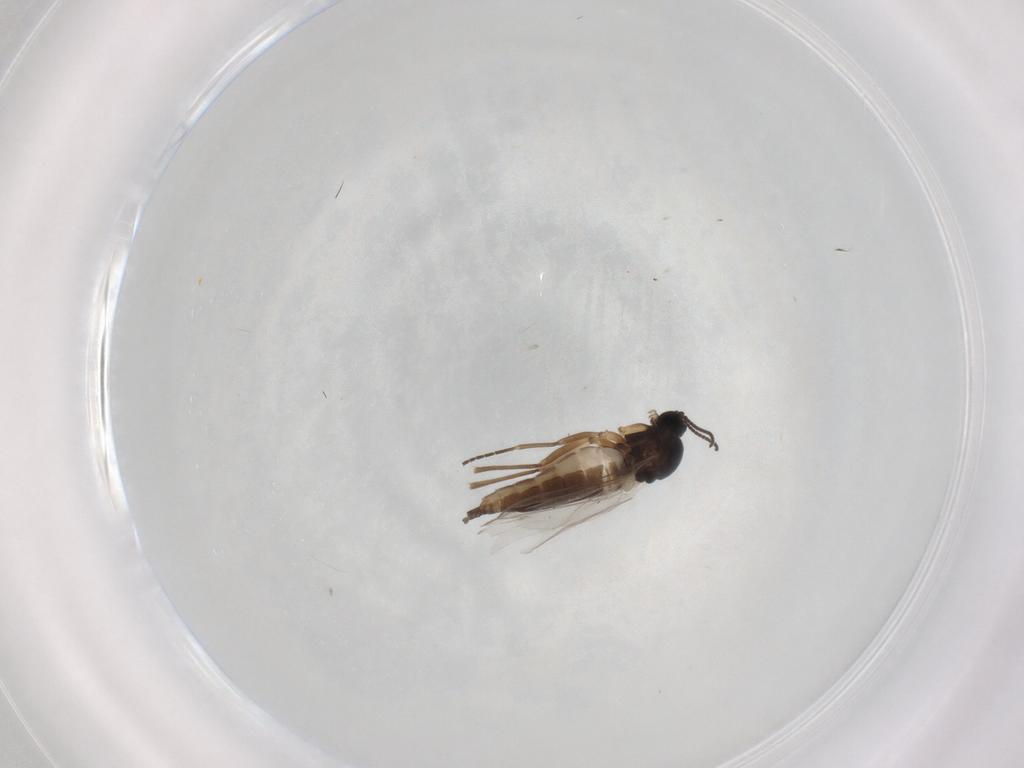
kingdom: Animalia
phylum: Arthropoda
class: Insecta
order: Diptera
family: Sciaridae
